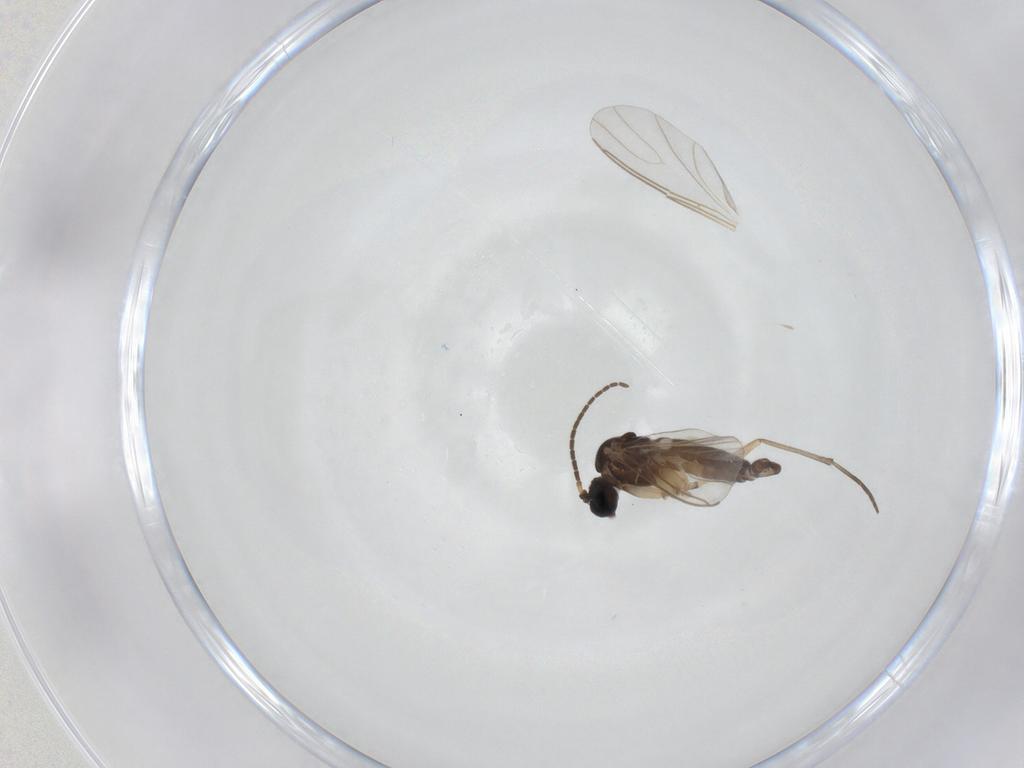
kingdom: Animalia
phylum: Arthropoda
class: Insecta
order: Diptera
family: Sciaridae
